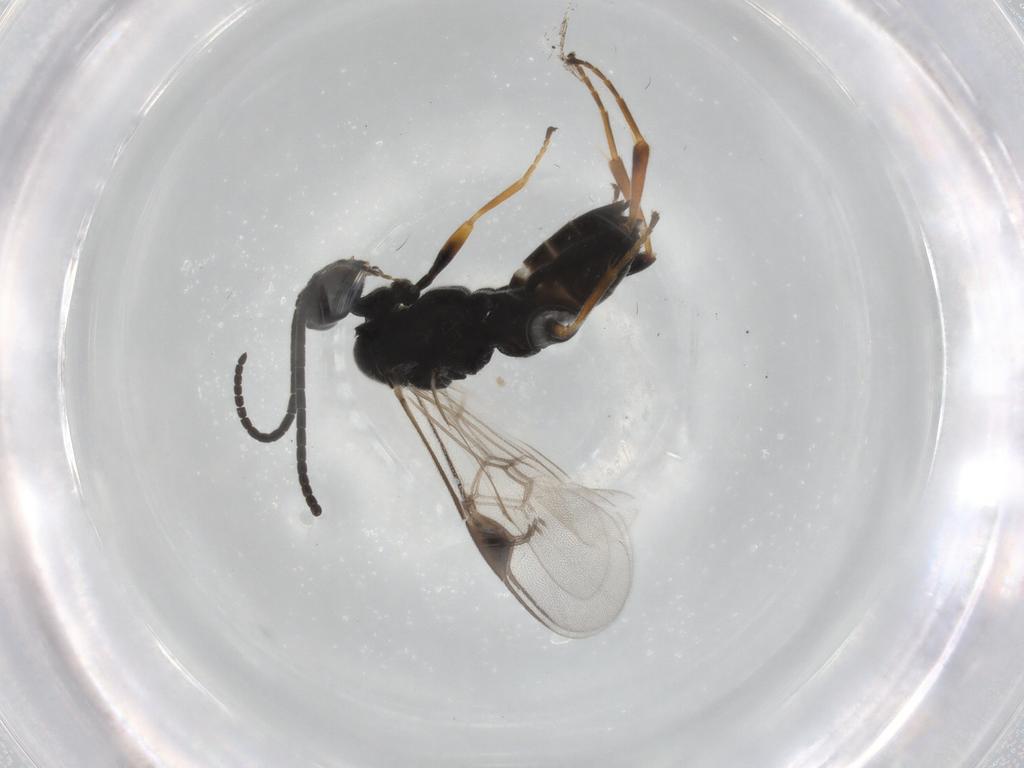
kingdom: Animalia
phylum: Arthropoda
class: Insecta
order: Hymenoptera
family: Braconidae
